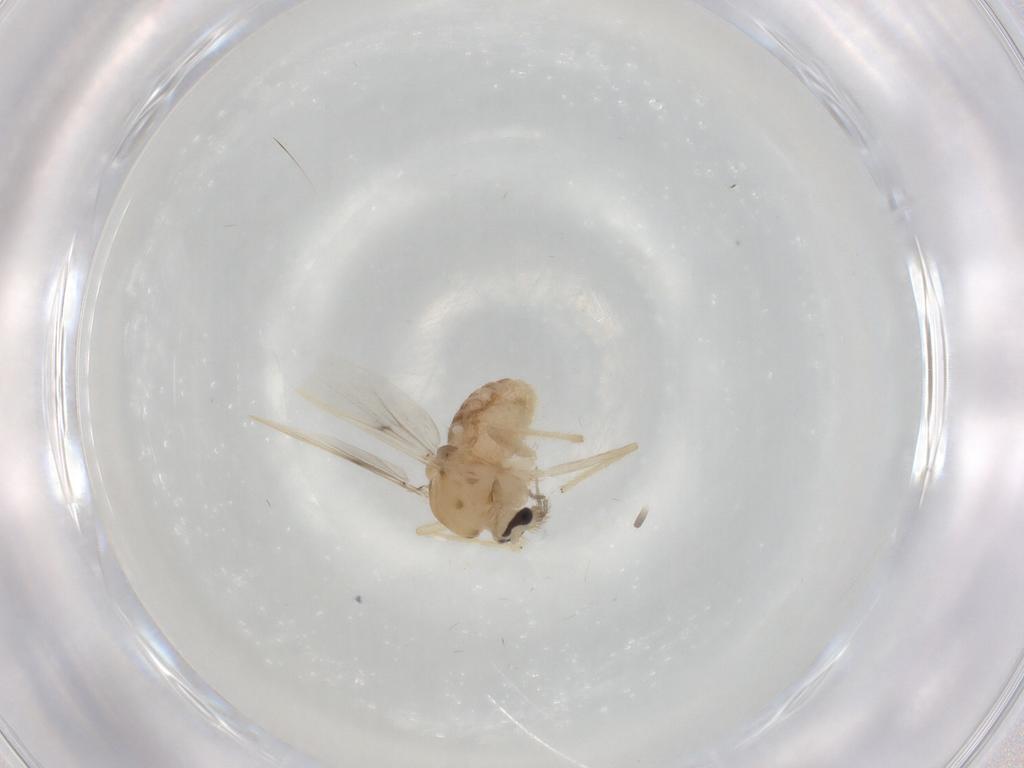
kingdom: Animalia
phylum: Arthropoda
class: Insecta
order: Diptera
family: Chironomidae
